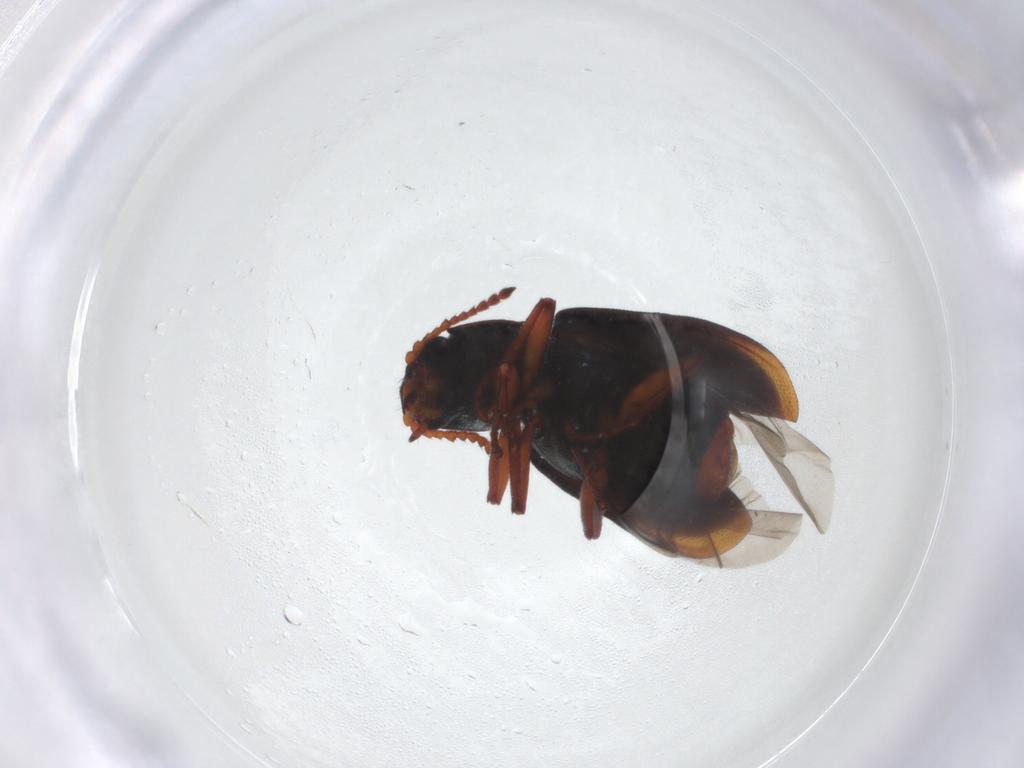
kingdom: Animalia
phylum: Arthropoda
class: Insecta
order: Coleoptera
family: Melyridae
